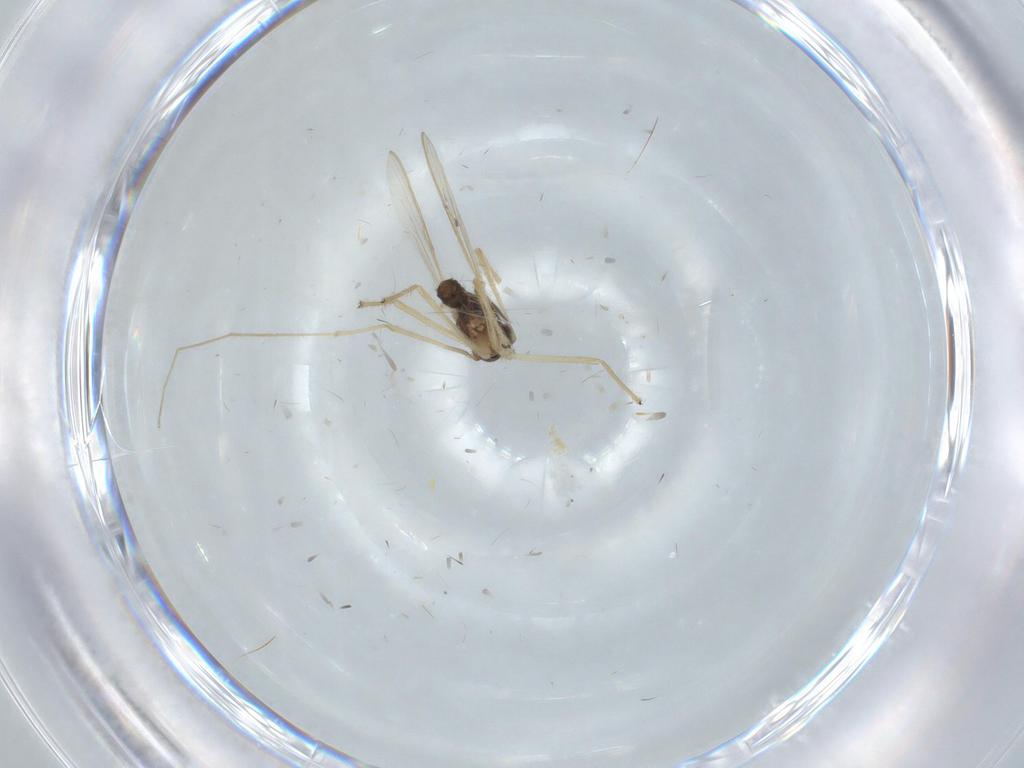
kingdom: Animalia
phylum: Arthropoda
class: Insecta
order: Diptera
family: Chironomidae
